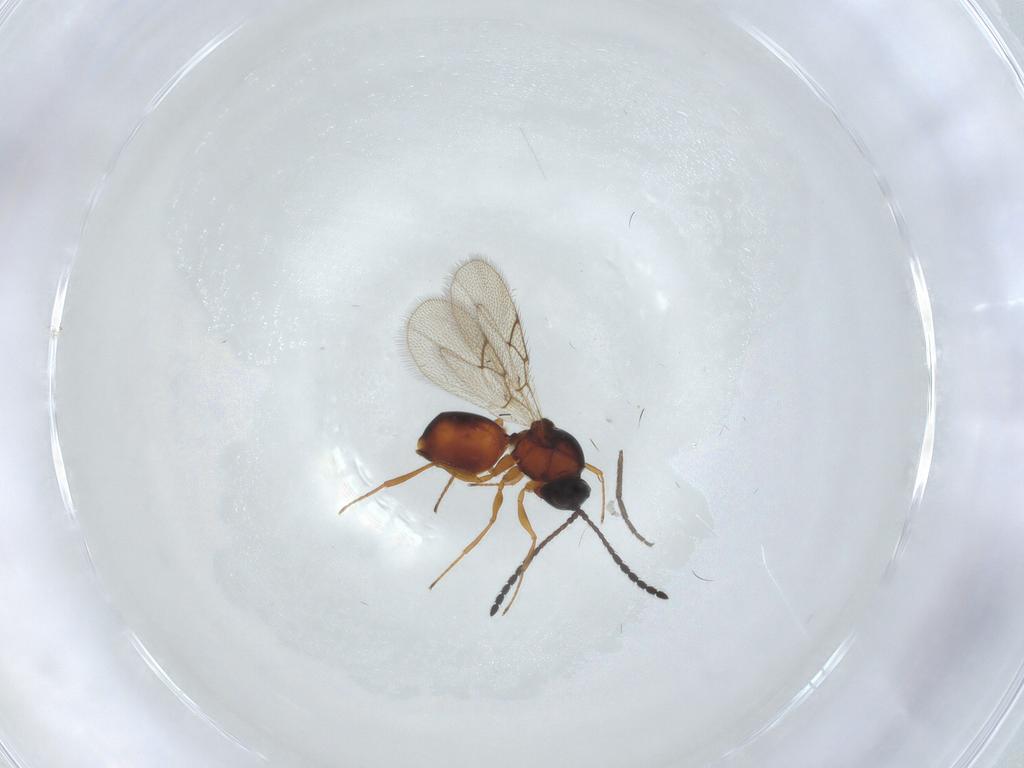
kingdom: Animalia
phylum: Arthropoda
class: Insecta
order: Hymenoptera
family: Figitidae
